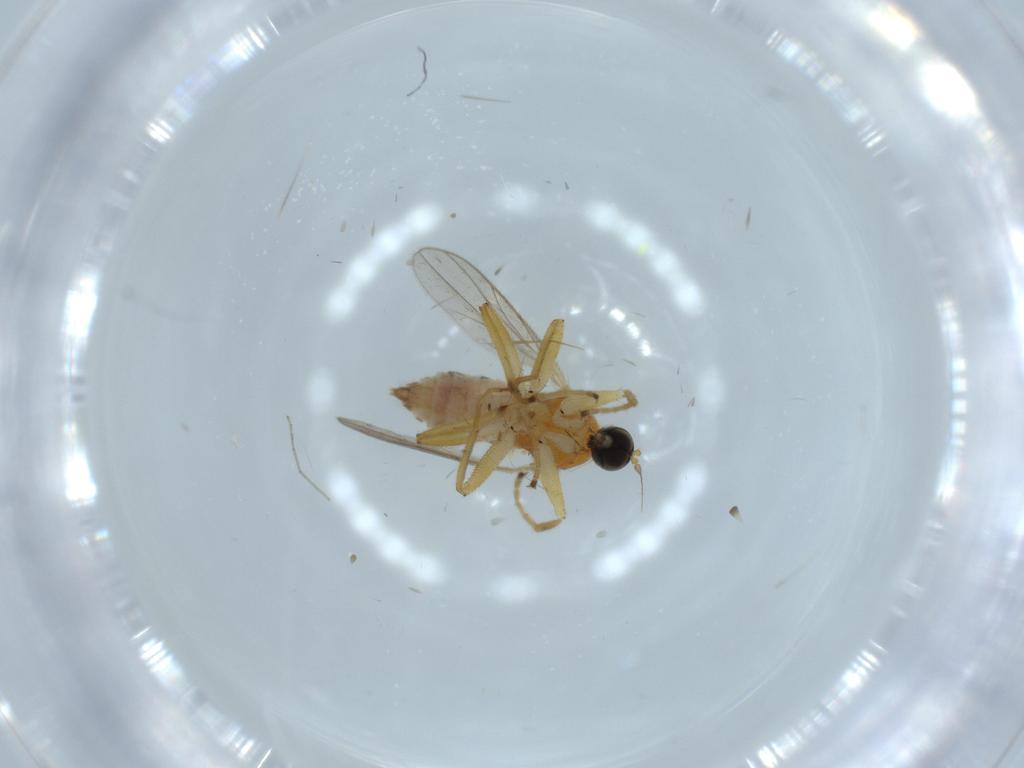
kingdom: Animalia
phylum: Arthropoda
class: Insecta
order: Diptera
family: Hybotidae
